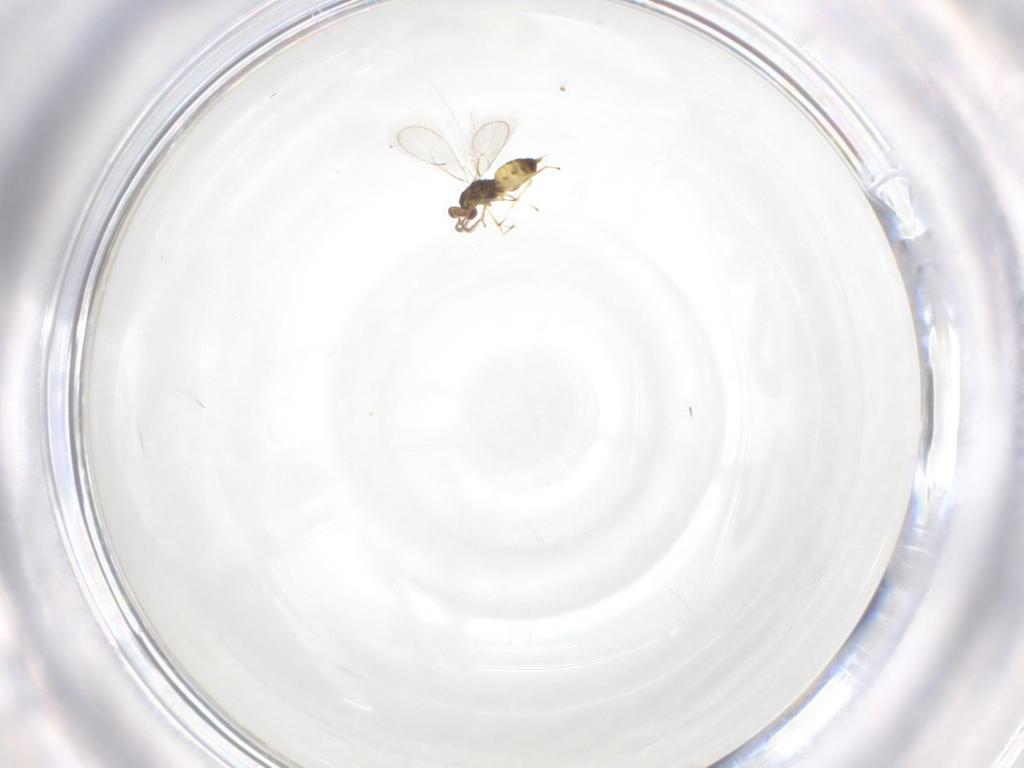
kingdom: Animalia
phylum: Arthropoda
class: Insecta
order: Hymenoptera
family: Eulophidae
